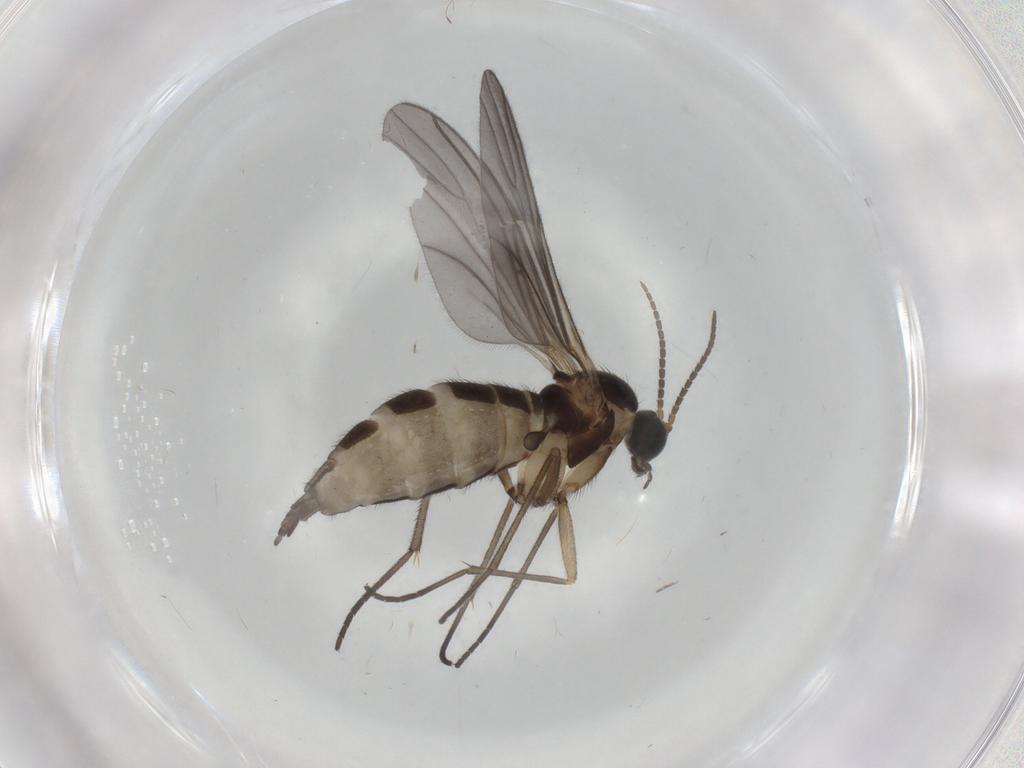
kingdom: Animalia
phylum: Arthropoda
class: Insecta
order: Diptera
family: Sciaridae
